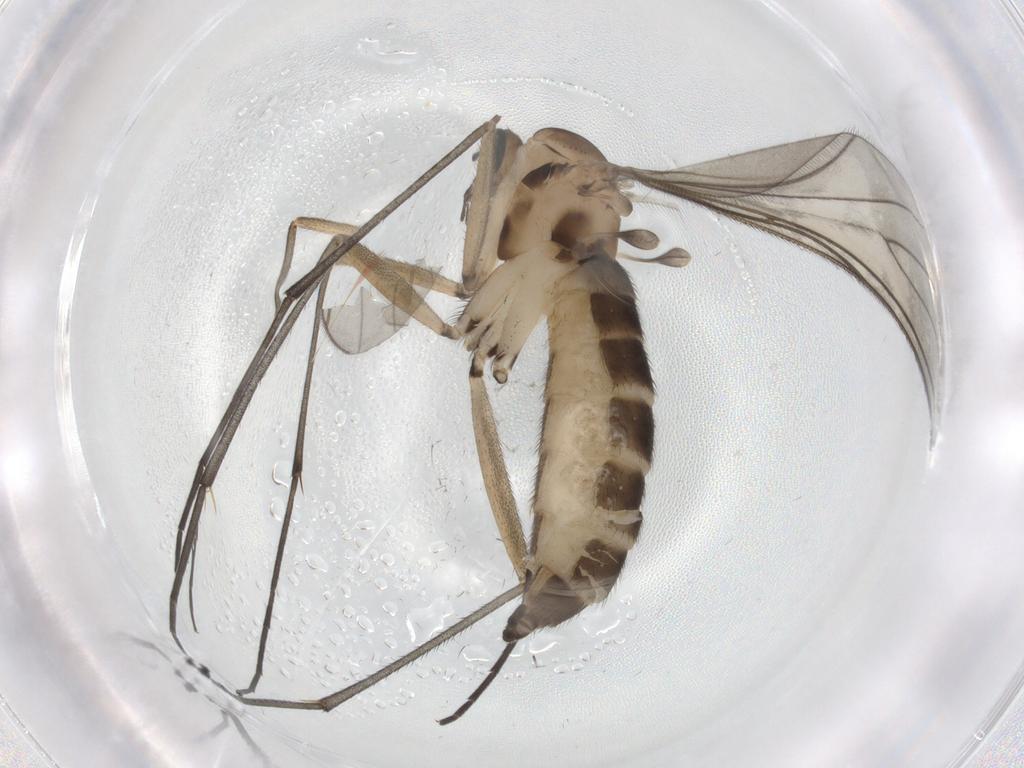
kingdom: Animalia
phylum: Arthropoda
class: Insecta
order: Diptera
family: Sciaridae
